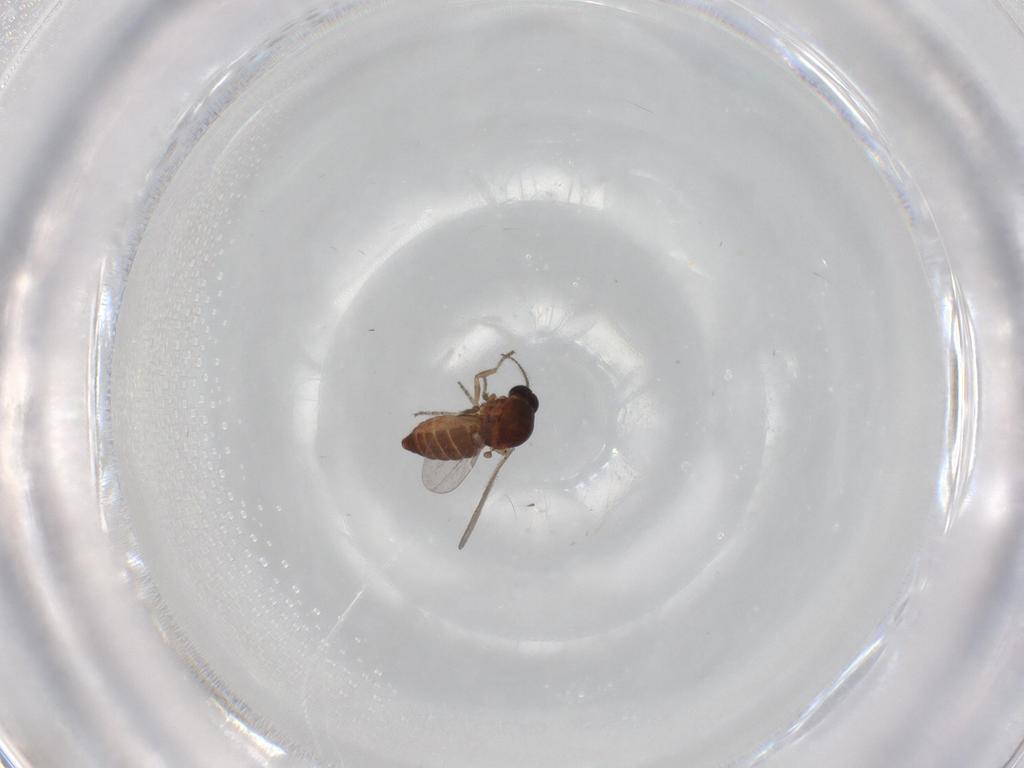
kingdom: Animalia
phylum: Arthropoda
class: Insecta
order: Diptera
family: Ceratopogonidae
